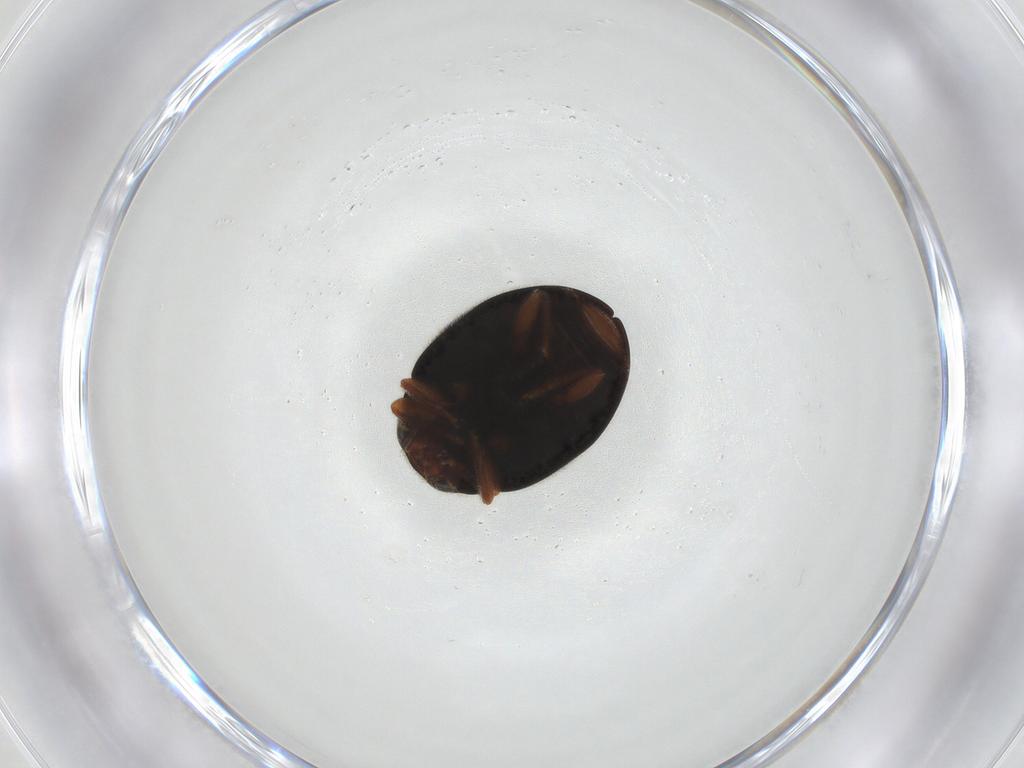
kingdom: Animalia
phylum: Arthropoda
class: Insecta
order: Coleoptera
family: Coccinellidae
